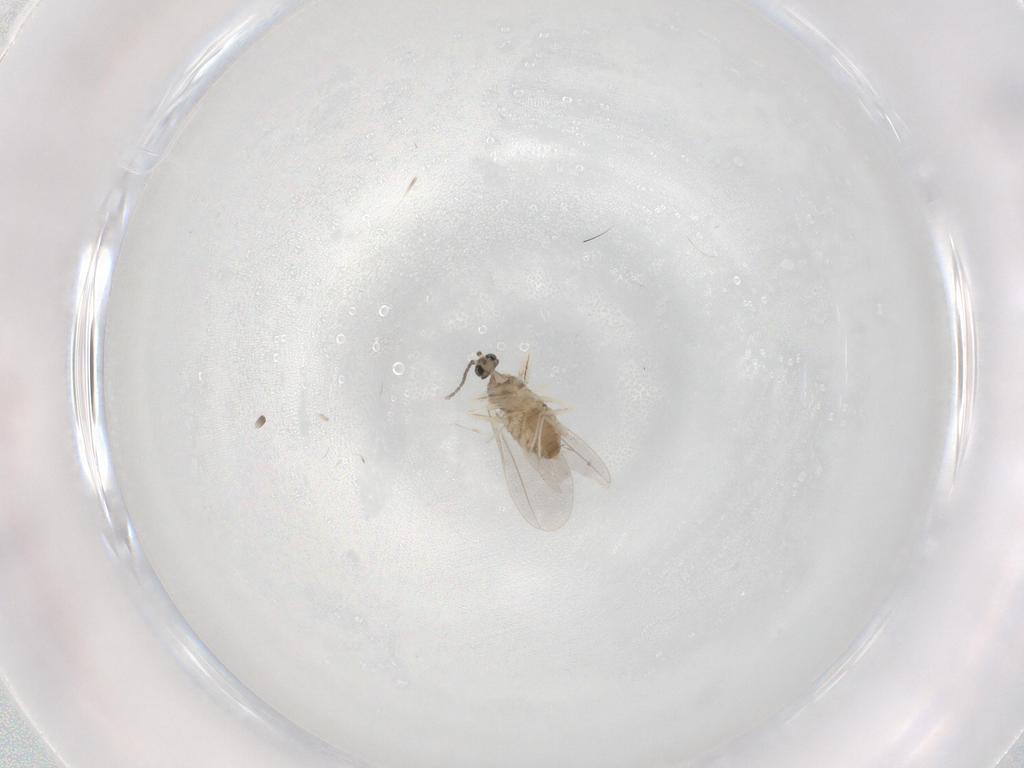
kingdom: Animalia
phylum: Arthropoda
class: Insecta
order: Diptera
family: Cecidomyiidae
